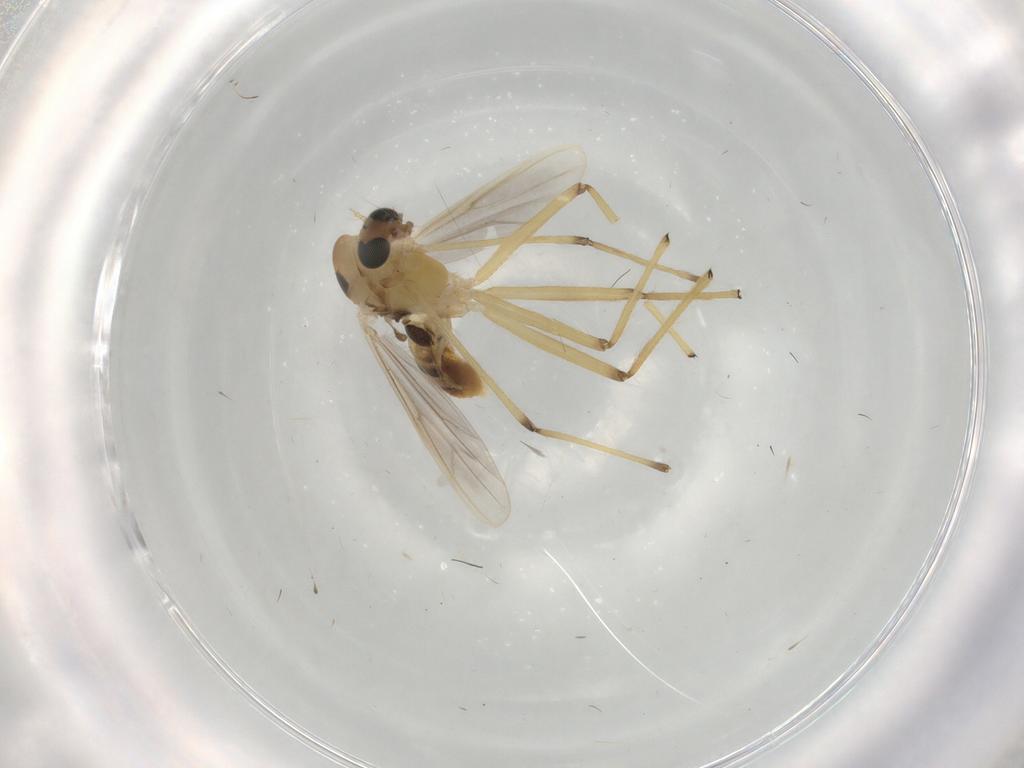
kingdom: Animalia
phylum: Arthropoda
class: Insecta
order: Diptera
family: Chironomidae
